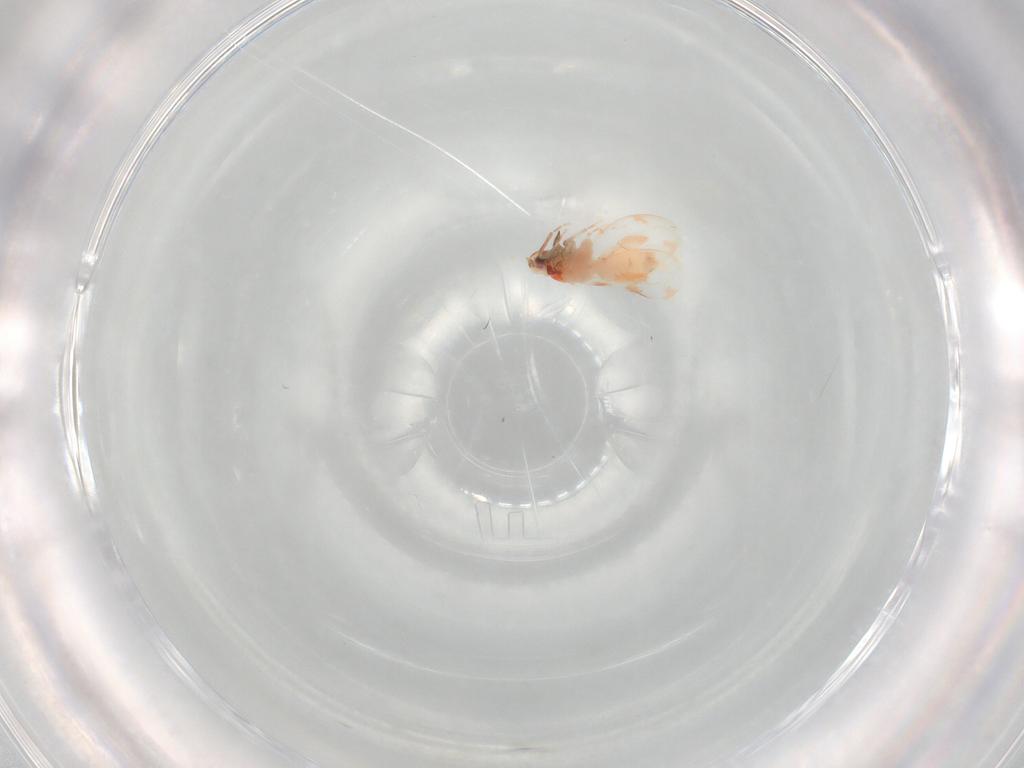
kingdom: Animalia
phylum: Arthropoda
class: Insecta
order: Hemiptera
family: Aleyrodidae
